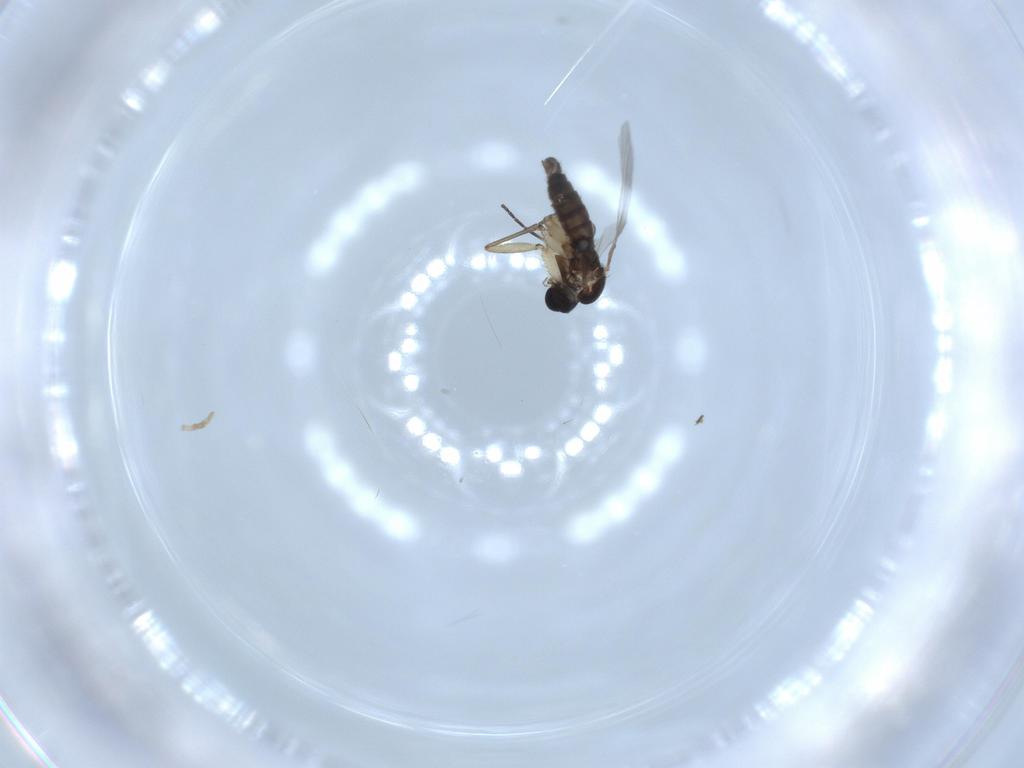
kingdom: Animalia
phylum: Arthropoda
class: Insecta
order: Diptera
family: Sciaridae
